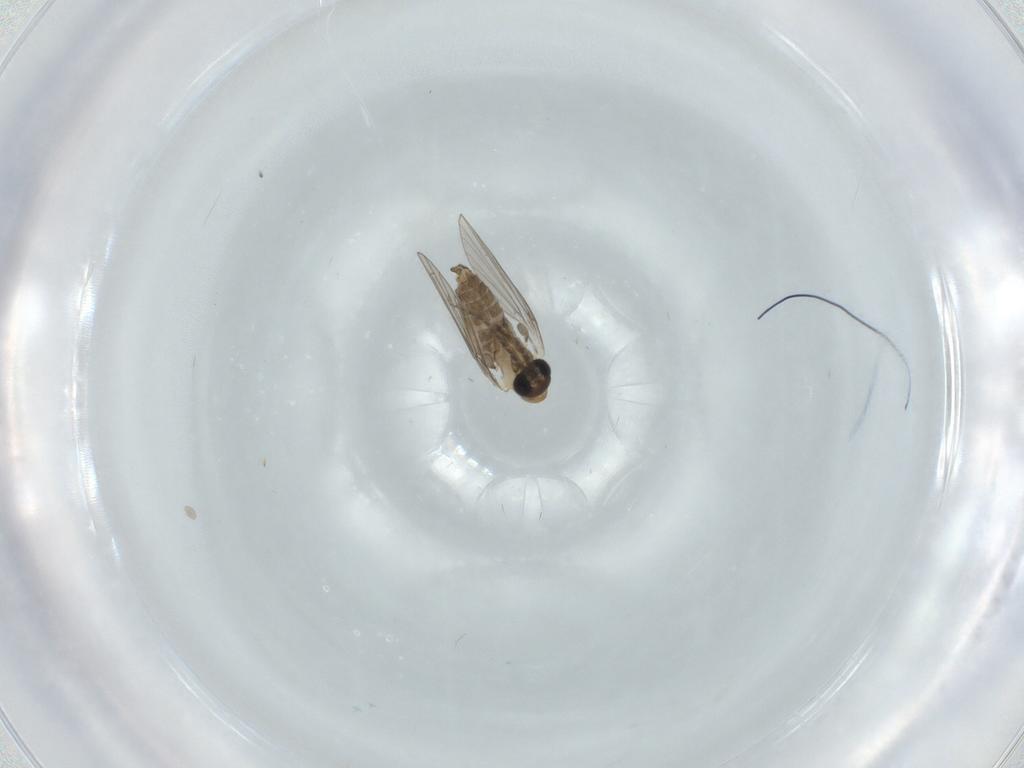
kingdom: Animalia
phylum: Arthropoda
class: Insecta
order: Diptera
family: Psychodidae
